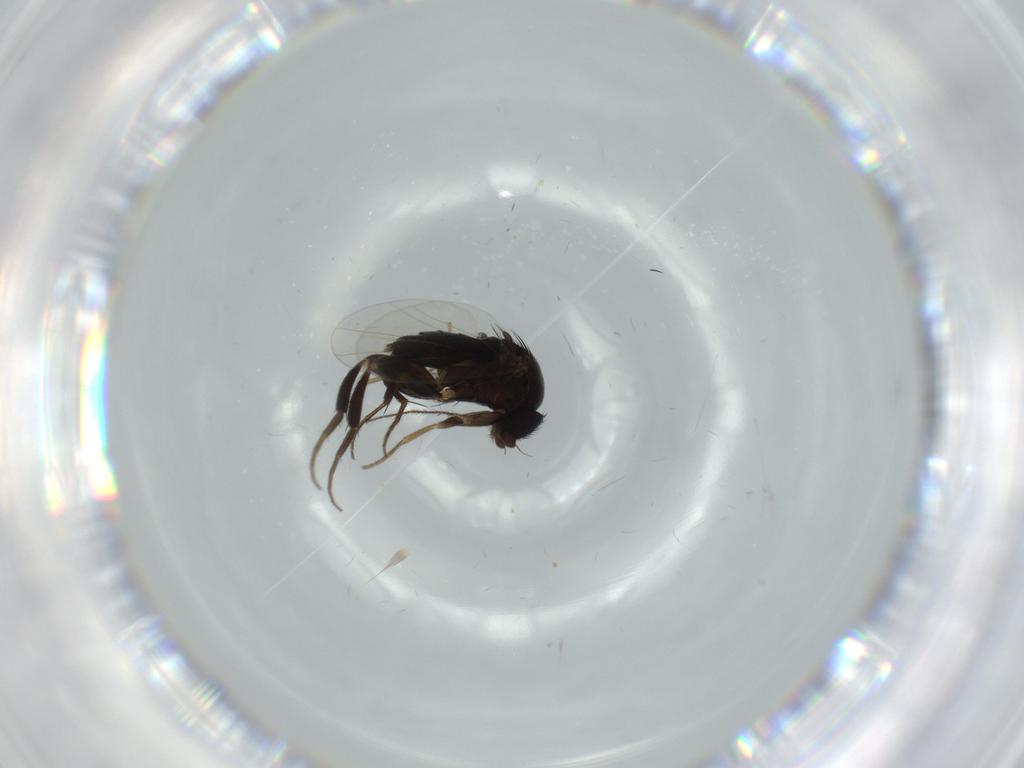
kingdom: Animalia
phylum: Arthropoda
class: Insecta
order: Diptera
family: Phoridae
